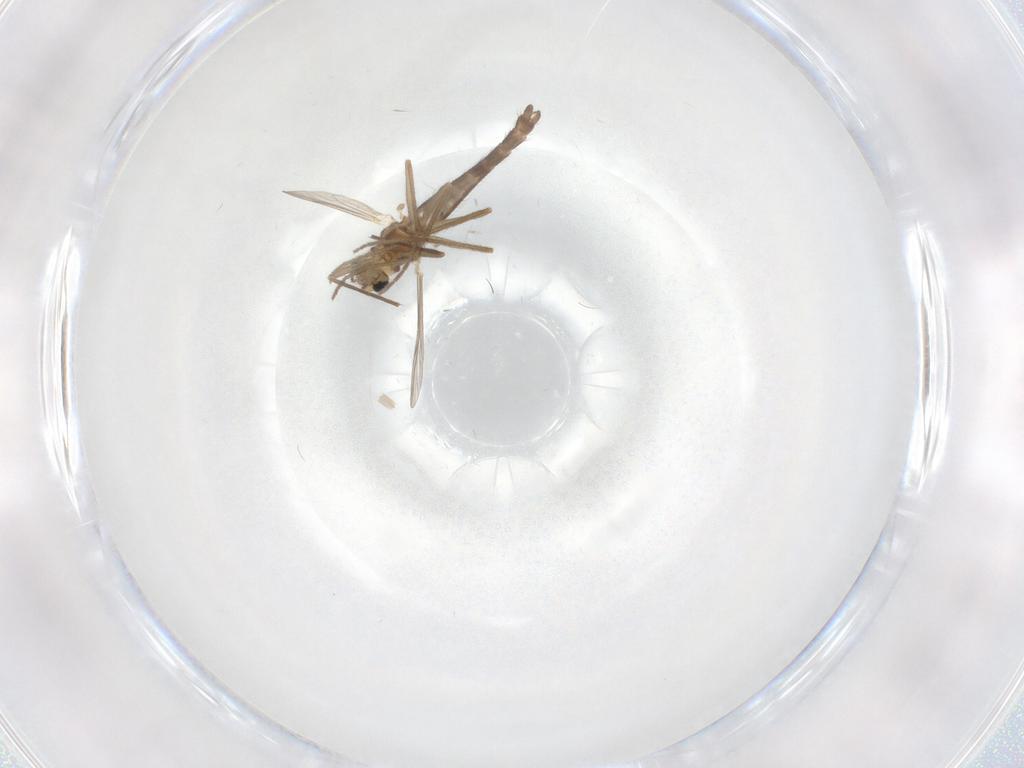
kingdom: Animalia
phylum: Arthropoda
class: Insecta
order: Diptera
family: Chironomidae
